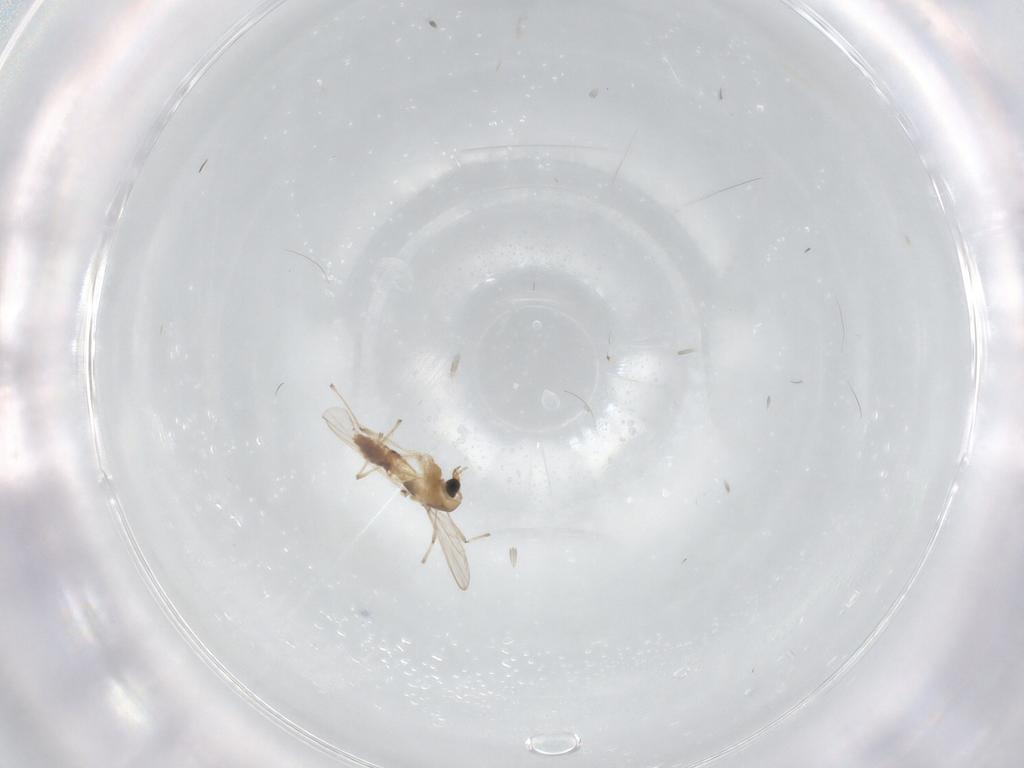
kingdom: Animalia
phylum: Arthropoda
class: Insecta
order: Diptera
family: Chironomidae
